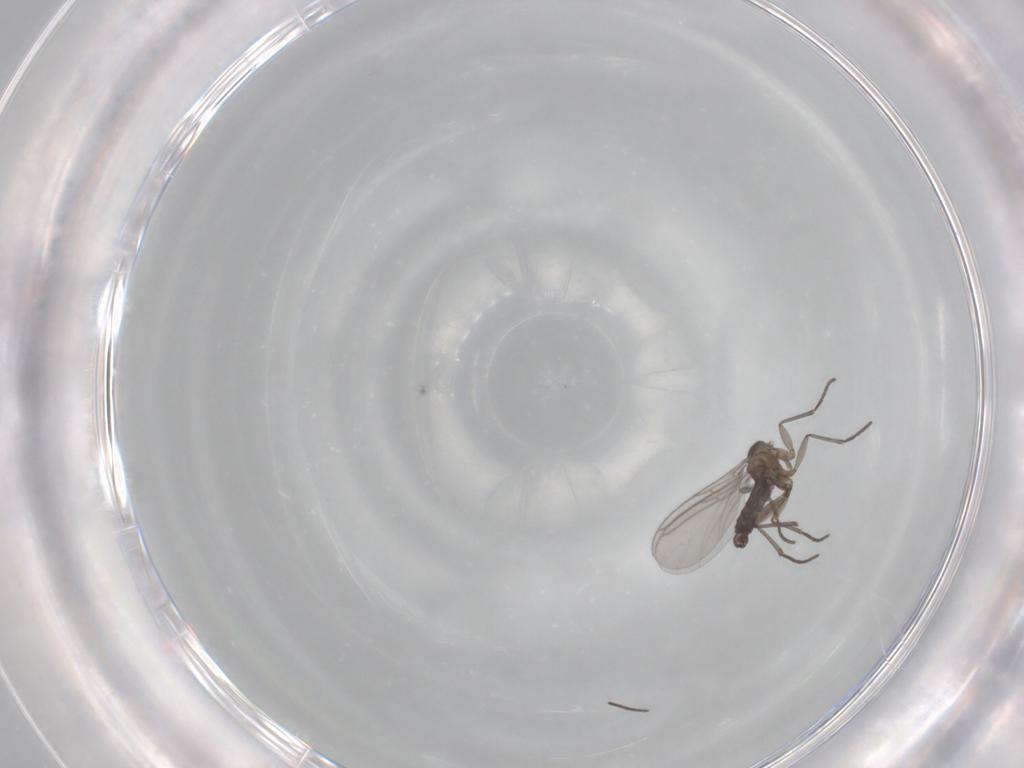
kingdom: Animalia
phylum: Arthropoda
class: Insecta
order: Diptera
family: Sciaridae
